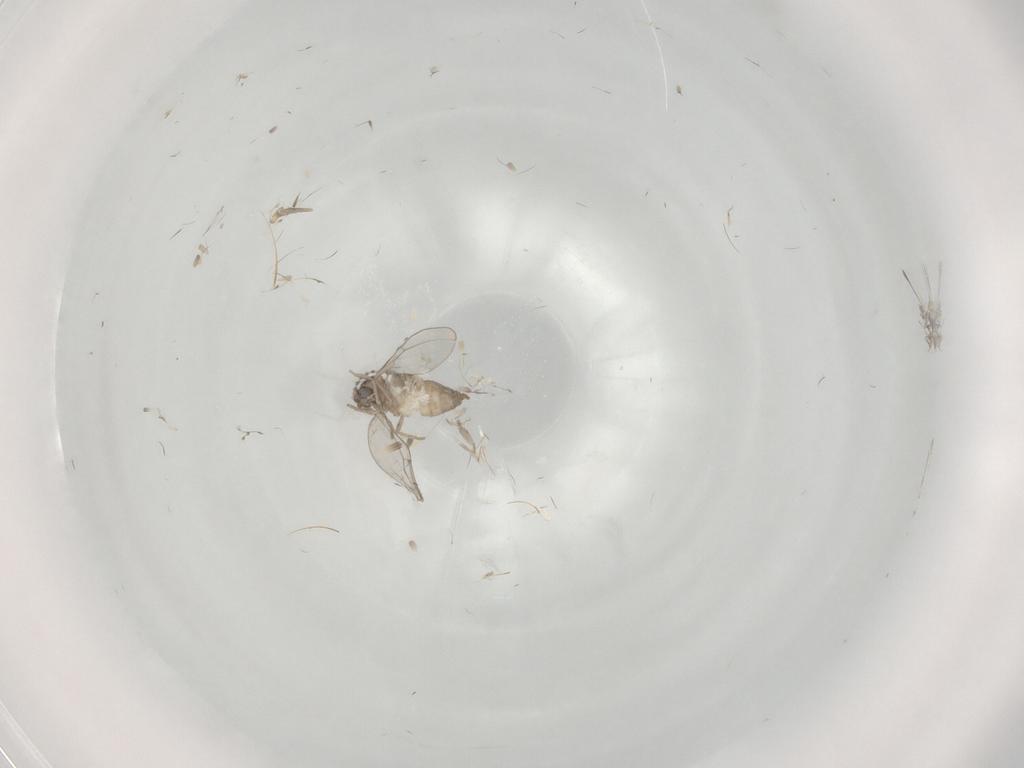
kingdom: Animalia
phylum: Arthropoda
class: Insecta
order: Diptera
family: Cecidomyiidae
